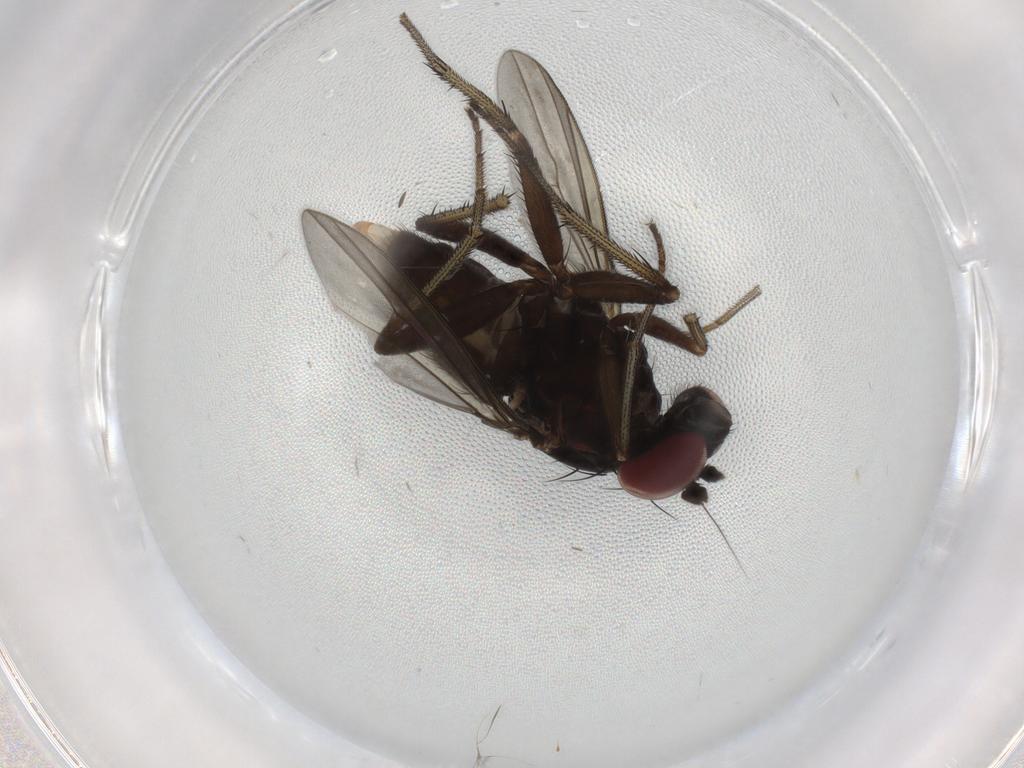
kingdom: Animalia
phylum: Arthropoda
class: Insecta
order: Diptera
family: Dolichopodidae
